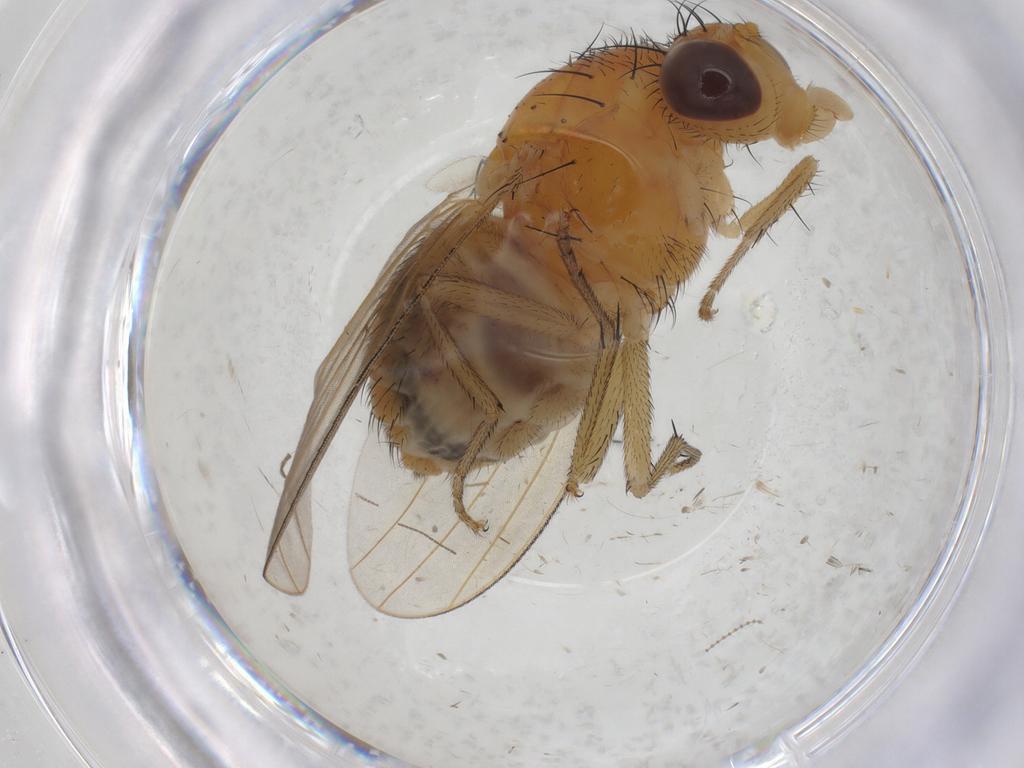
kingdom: Animalia
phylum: Arthropoda
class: Insecta
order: Diptera
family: Cecidomyiidae
